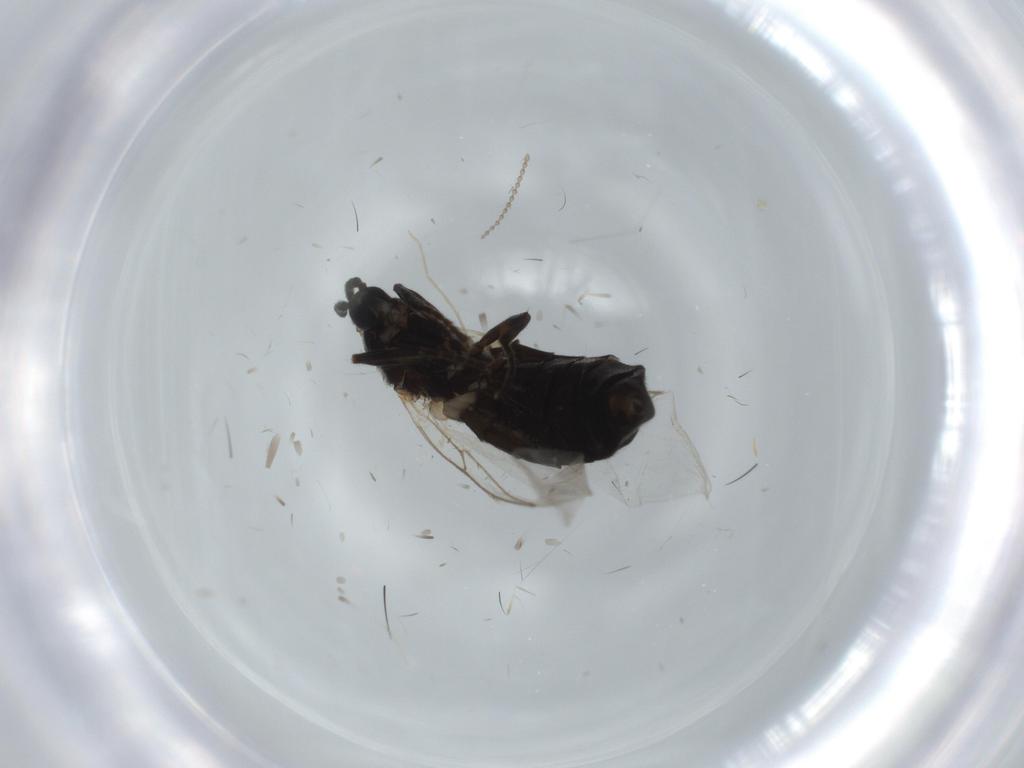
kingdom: Animalia
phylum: Arthropoda
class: Insecta
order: Diptera
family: Scatopsidae
